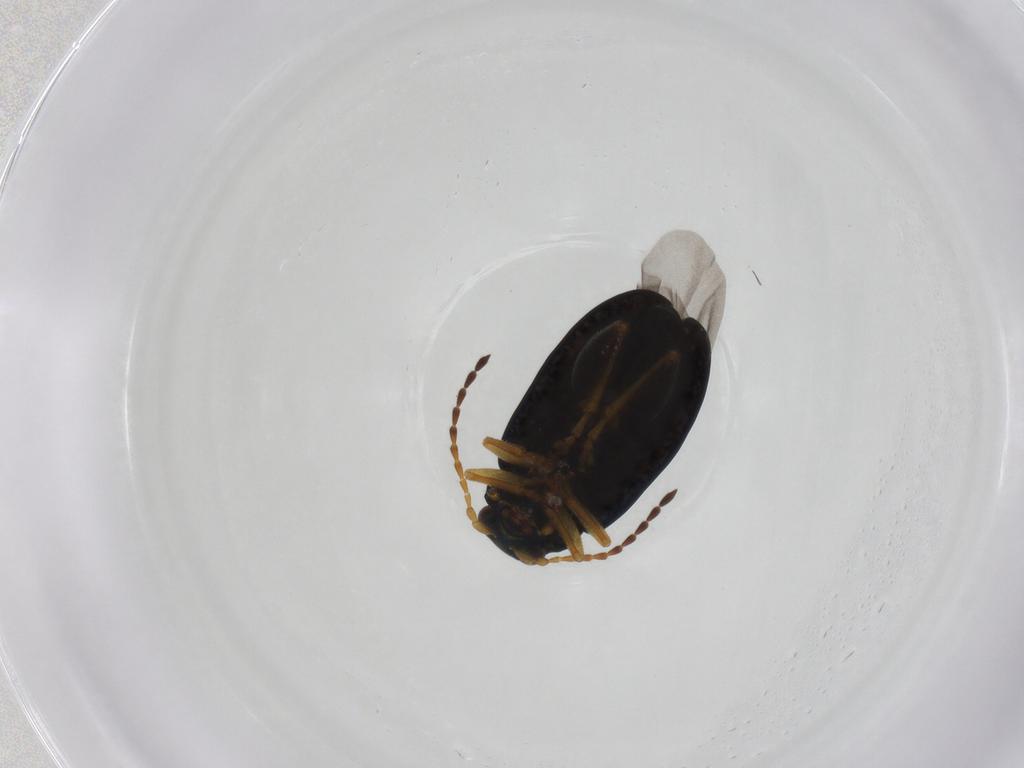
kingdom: Animalia
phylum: Arthropoda
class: Insecta
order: Coleoptera
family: Chrysomelidae
